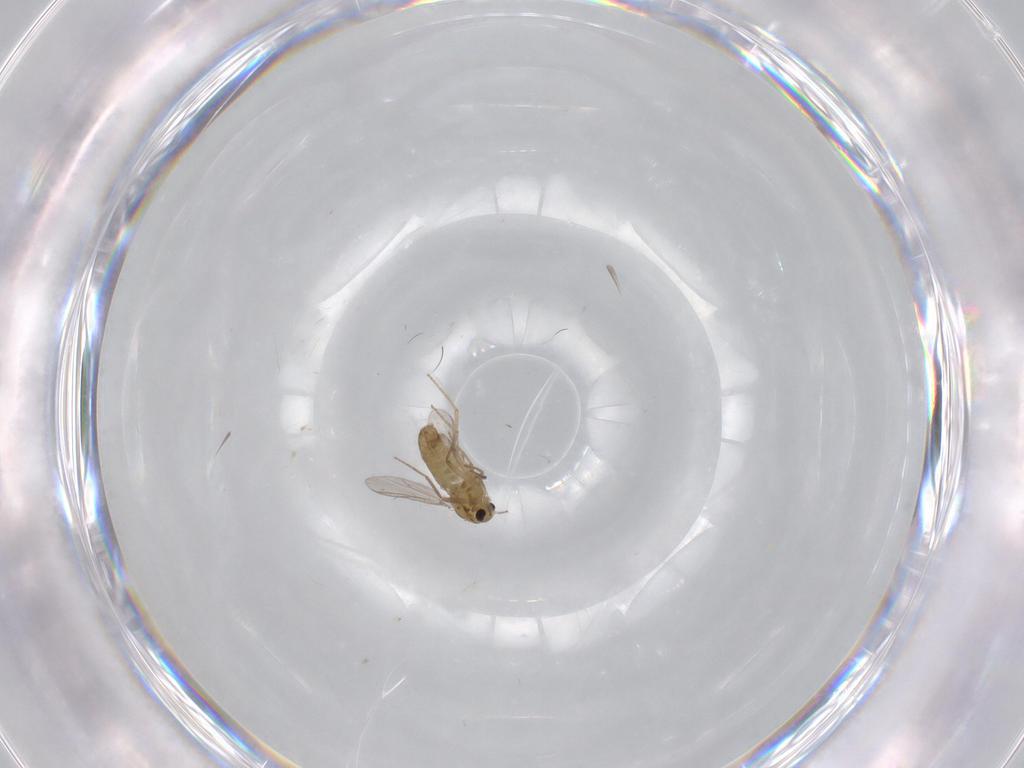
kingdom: Animalia
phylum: Arthropoda
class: Insecta
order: Diptera
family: Chironomidae
